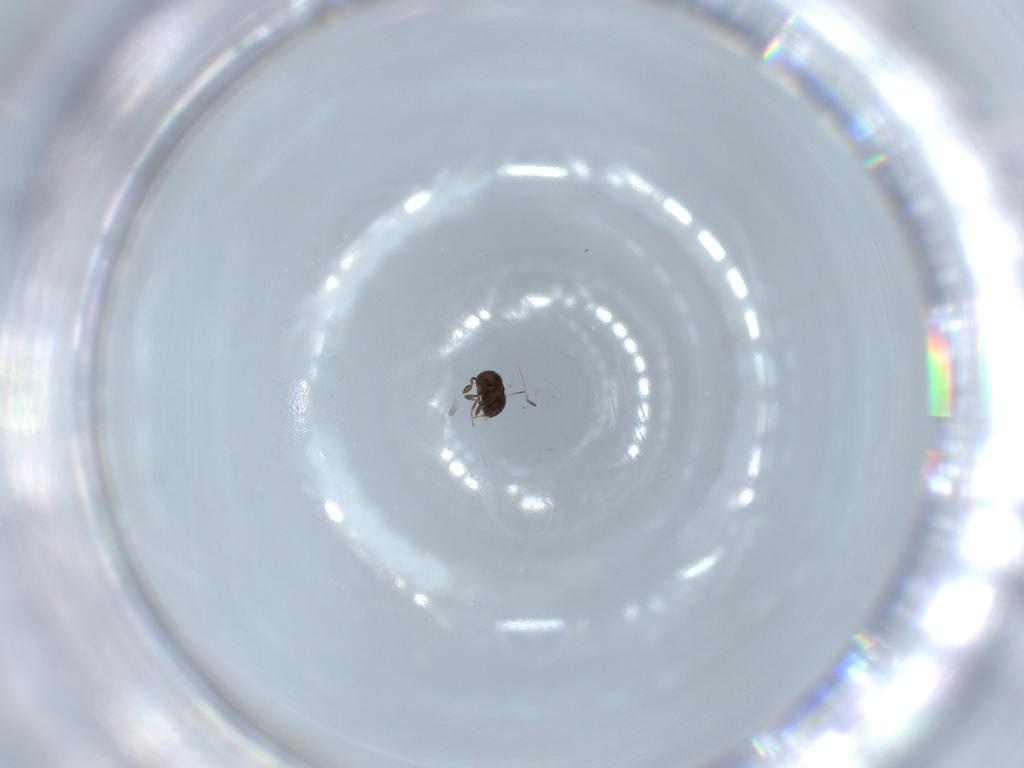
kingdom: Animalia
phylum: Arthropoda
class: Insecta
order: Hymenoptera
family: Scelionidae
